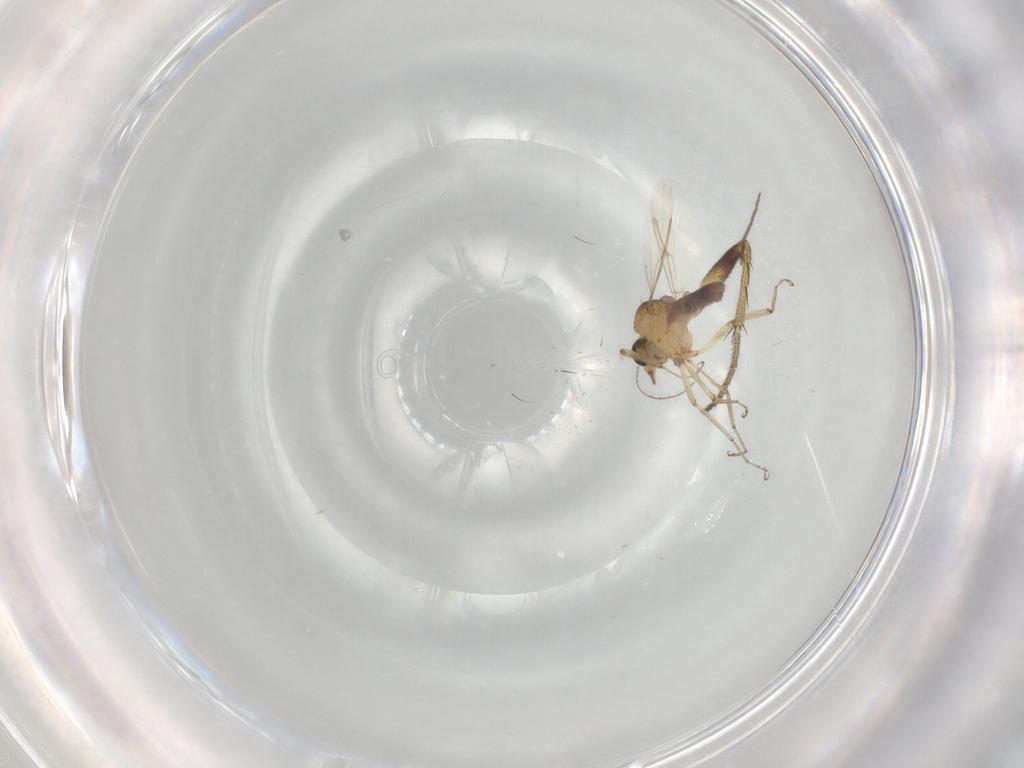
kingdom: Animalia
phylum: Arthropoda
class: Insecta
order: Diptera
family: Ceratopogonidae
